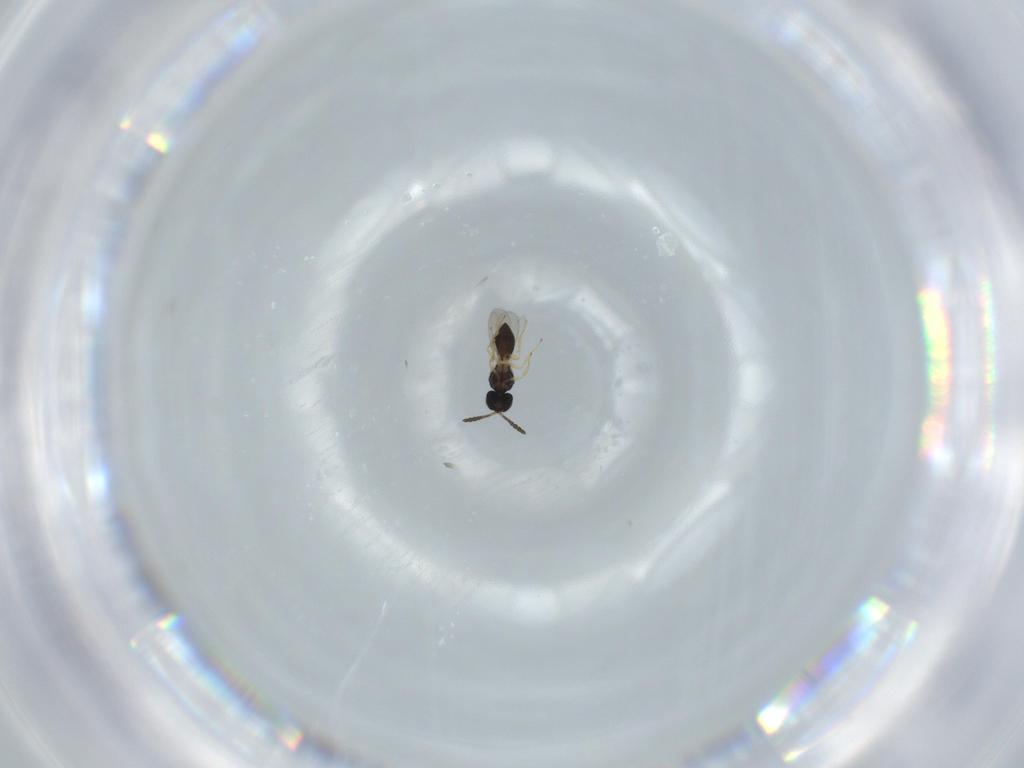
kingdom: Animalia
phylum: Arthropoda
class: Insecta
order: Hymenoptera
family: Scelionidae
